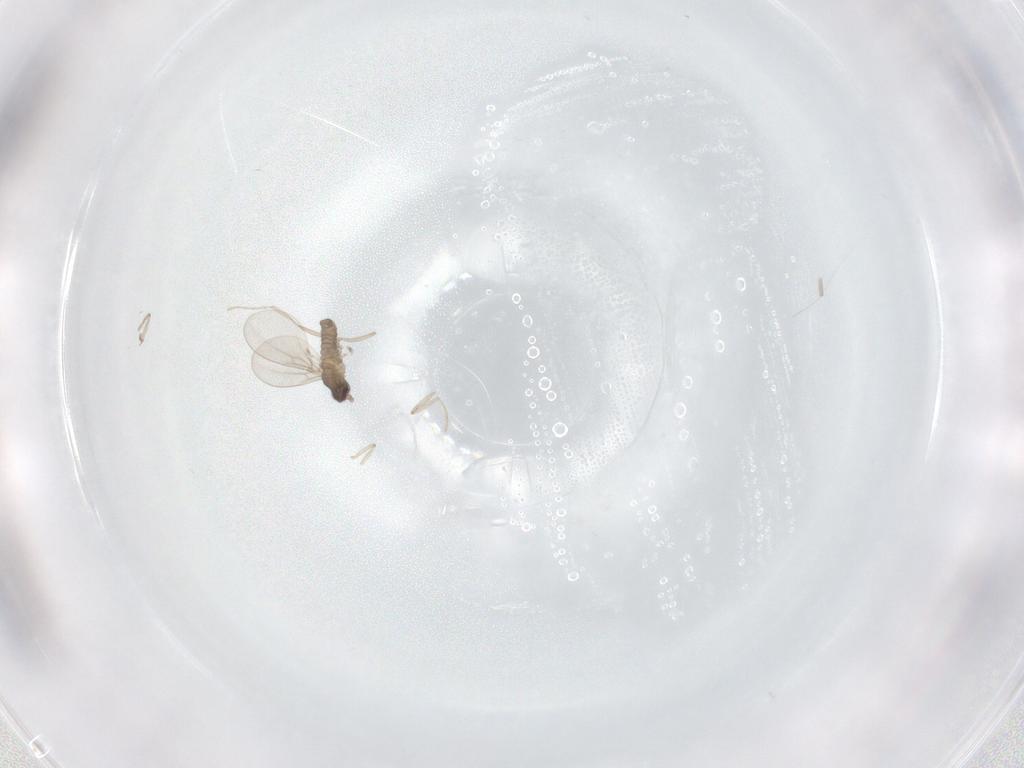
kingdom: Animalia
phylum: Arthropoda
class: Insecta
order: Diptera
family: Cecidomyiidae
